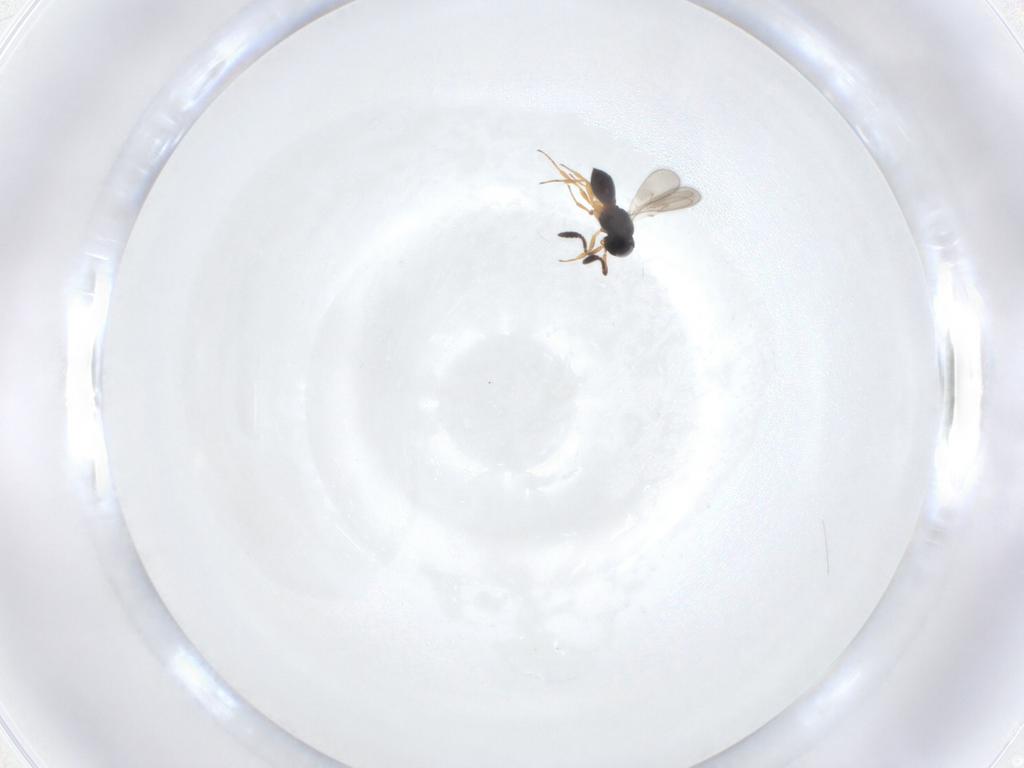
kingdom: Animalia
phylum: Arthropoda
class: Insecta
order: Hymenoptera
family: Scelionidae
